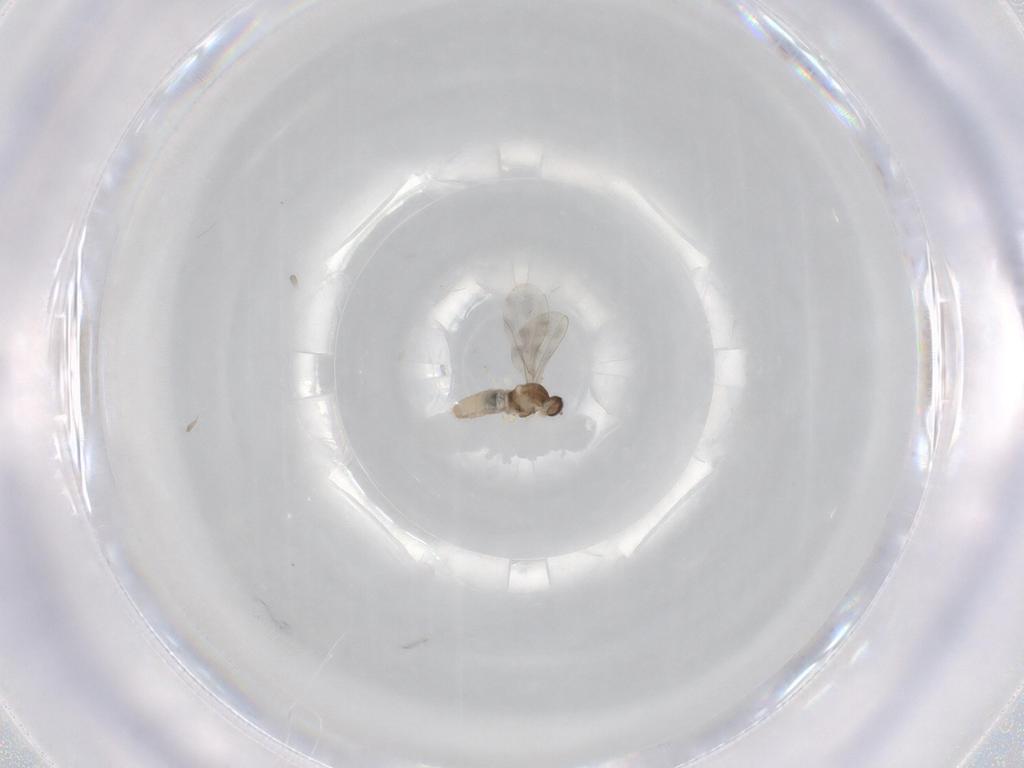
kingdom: Animalia
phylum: Arthropoda
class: Insecta
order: Diptera
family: Cecidomyiidae
